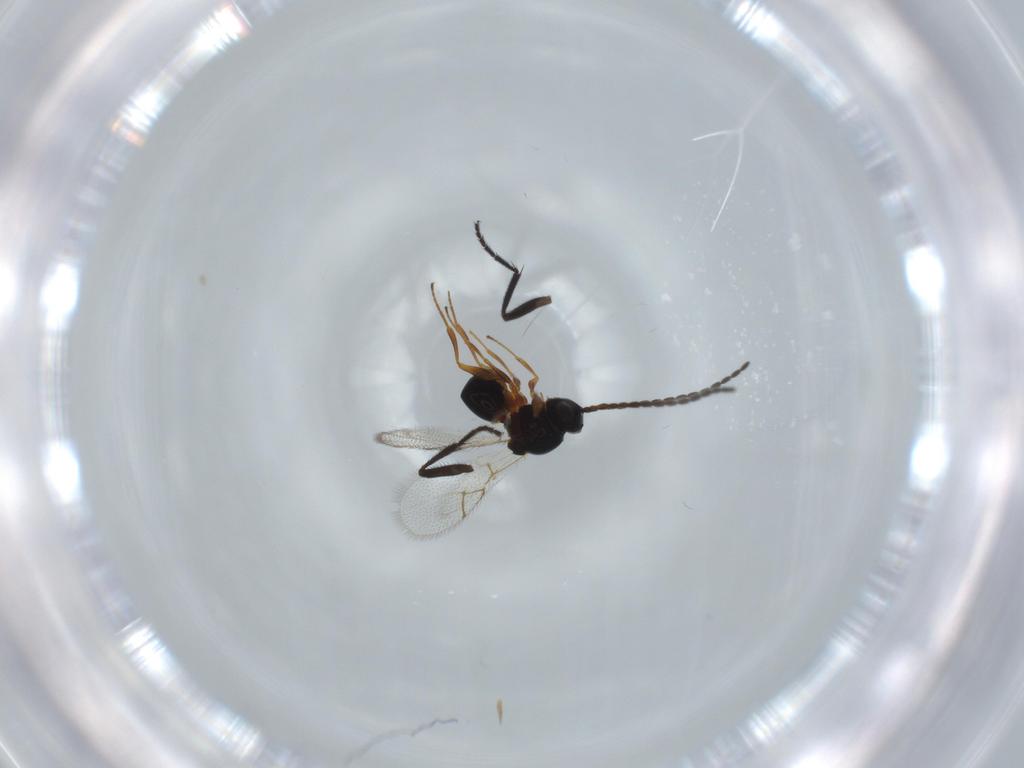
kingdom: Animalia
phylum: Arthropoda
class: Insecta
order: Hymenoptera
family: Figitidae
